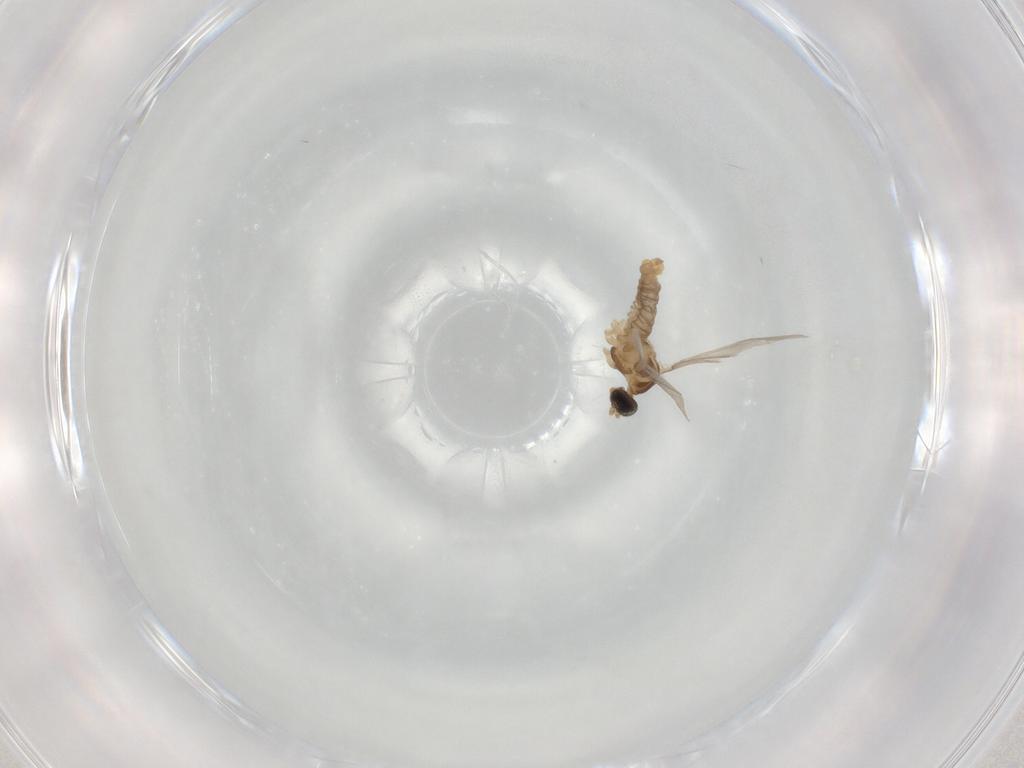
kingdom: Animalia
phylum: Arthropoda
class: Insecta
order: Diptera
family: Cecidomyiidae
